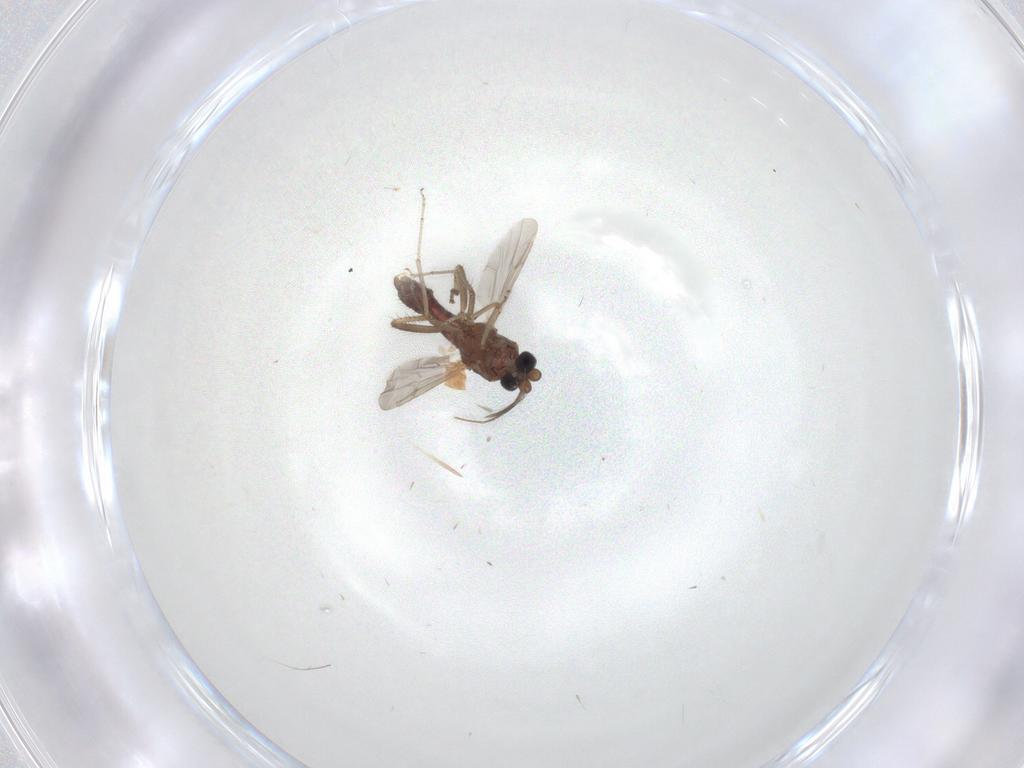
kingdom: Animalia
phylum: Arthropoda
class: Insecta
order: Diptera
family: Ceratopogonidae
